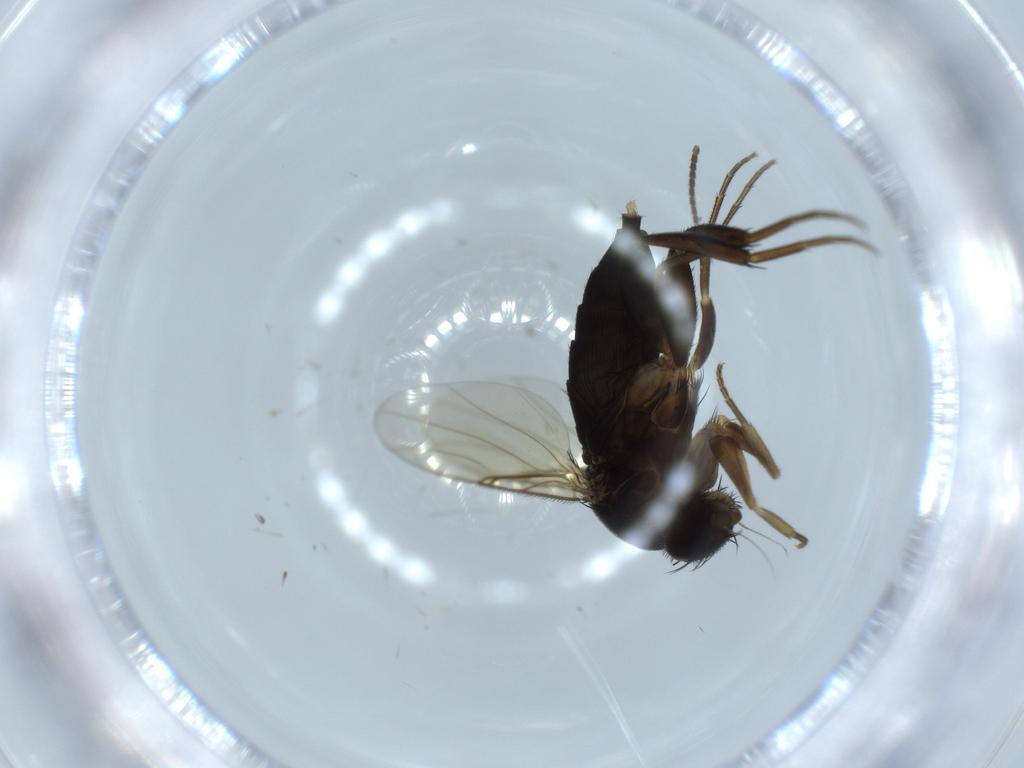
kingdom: Animalia
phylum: Arthropoda
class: Insecta
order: Diptera
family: Phoridae
